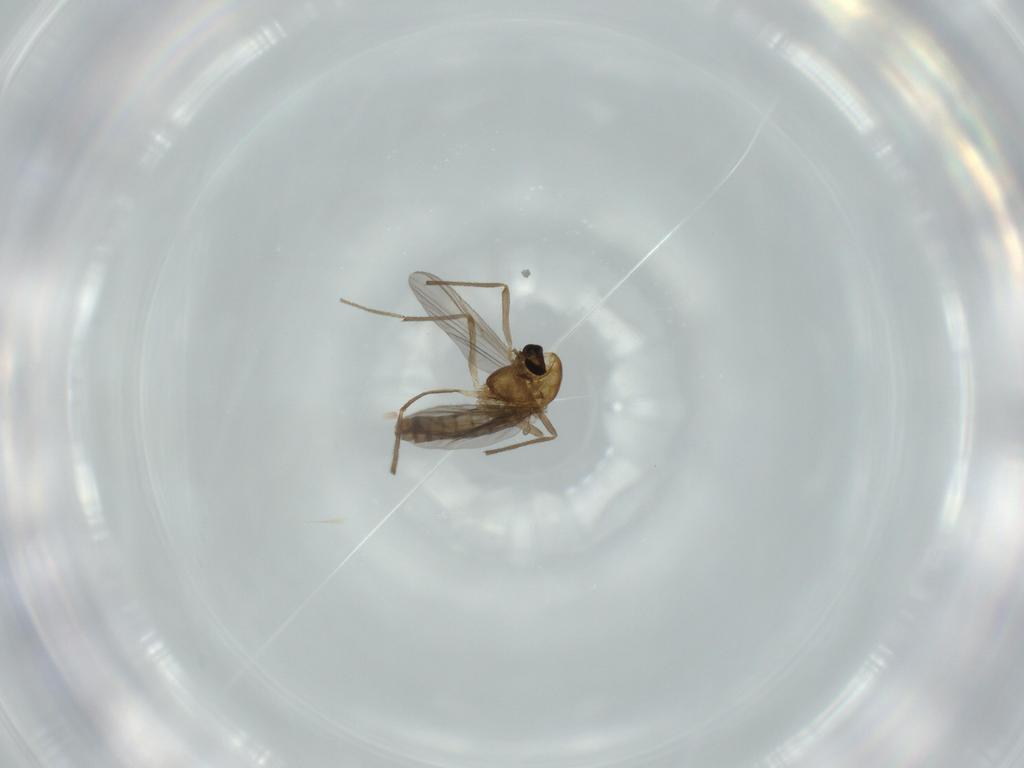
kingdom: Animalia
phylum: Arthropoda
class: Insecta
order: Diptera
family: Chironomidae
